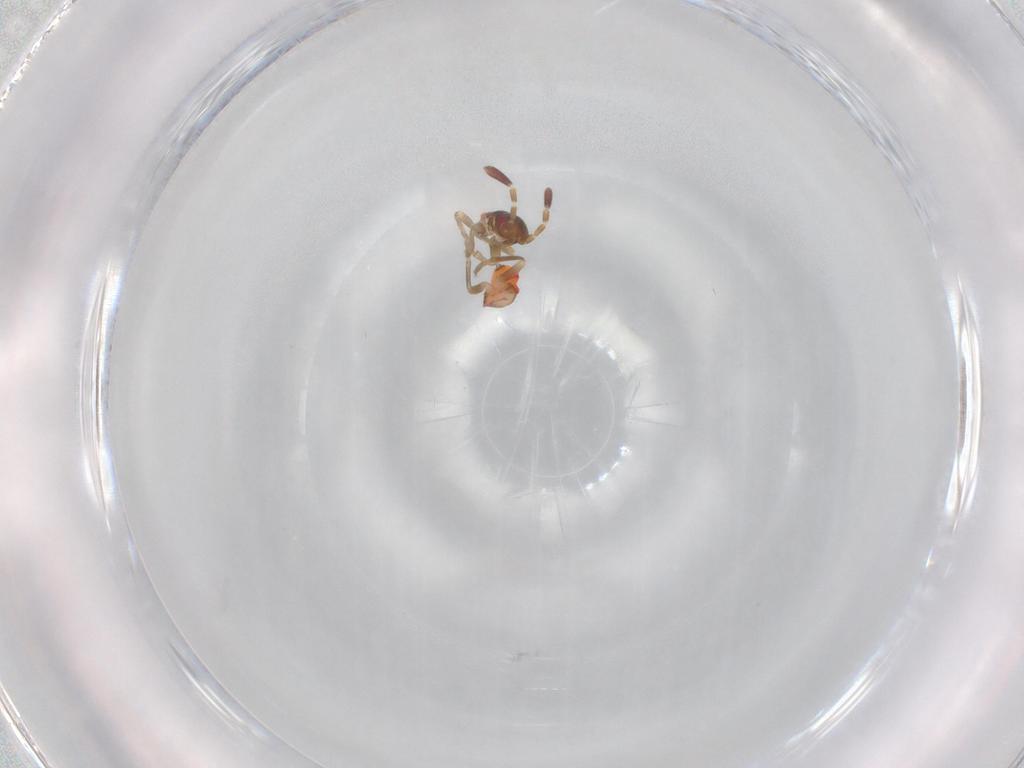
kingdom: Animalia
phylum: Arthropoda
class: Insecta
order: Hemiptera
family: Rhyparochromidae
